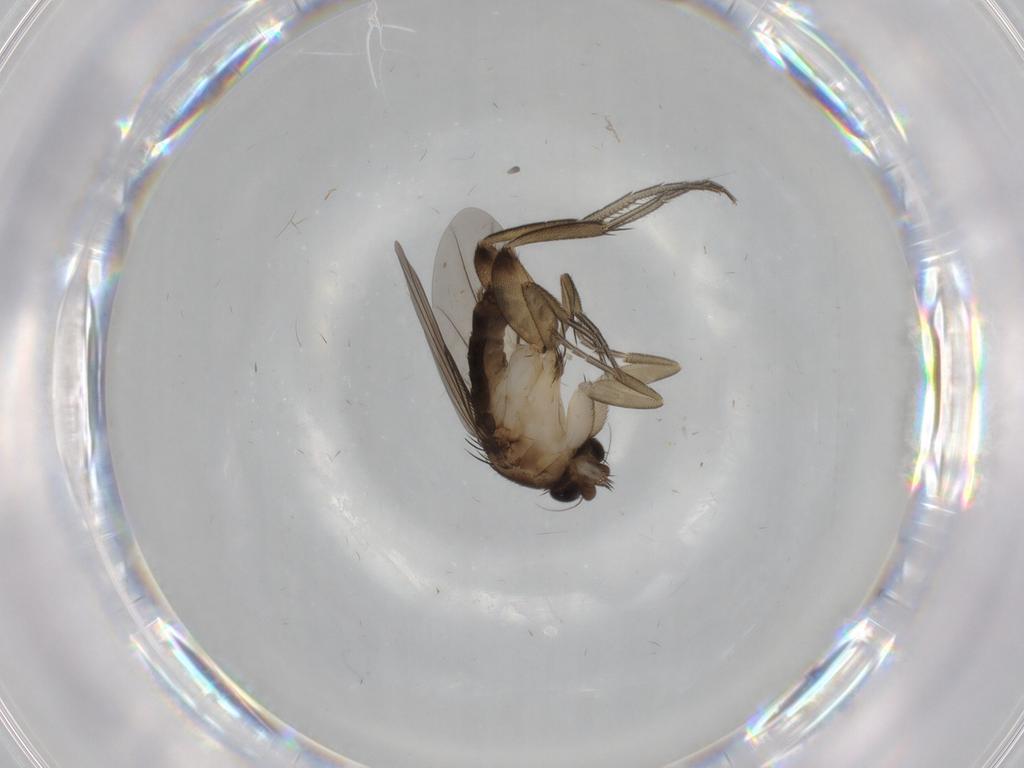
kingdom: Animalia
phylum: Arthropoda
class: Insecta
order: Diptera
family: Phoridae
